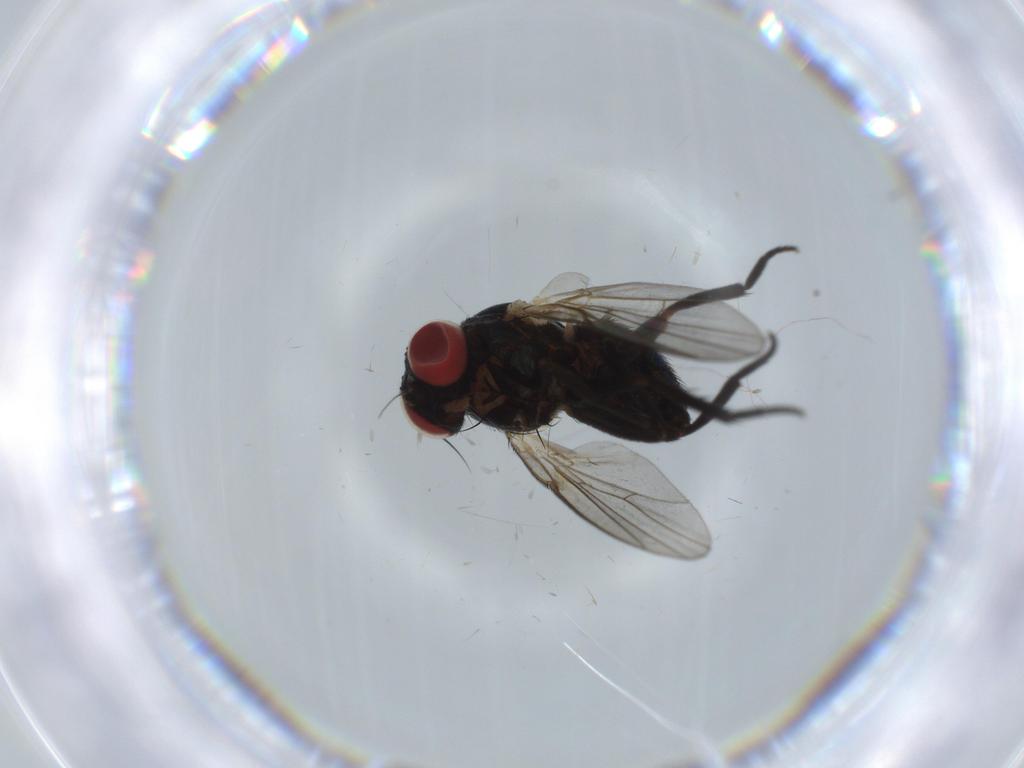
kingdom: Animalia
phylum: Arthropoda
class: Insecta
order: Diptera
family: Agromyzidae
